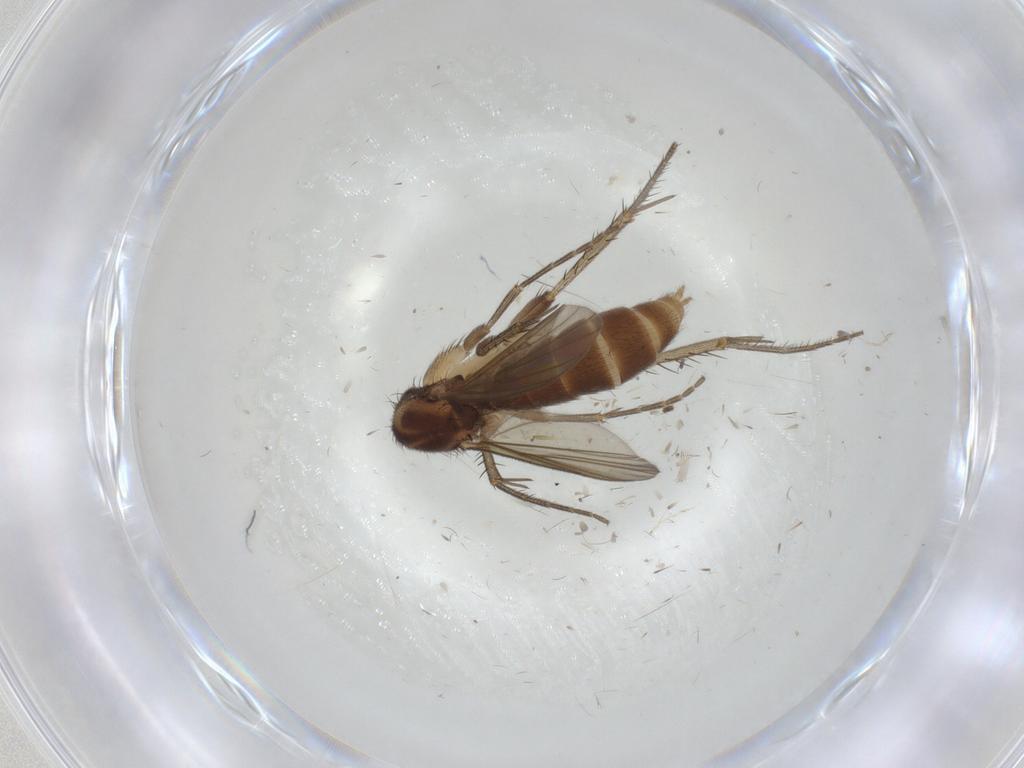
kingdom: Animalia
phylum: Arthropoda
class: Insecta
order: Diptera
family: Mycetophilidae
